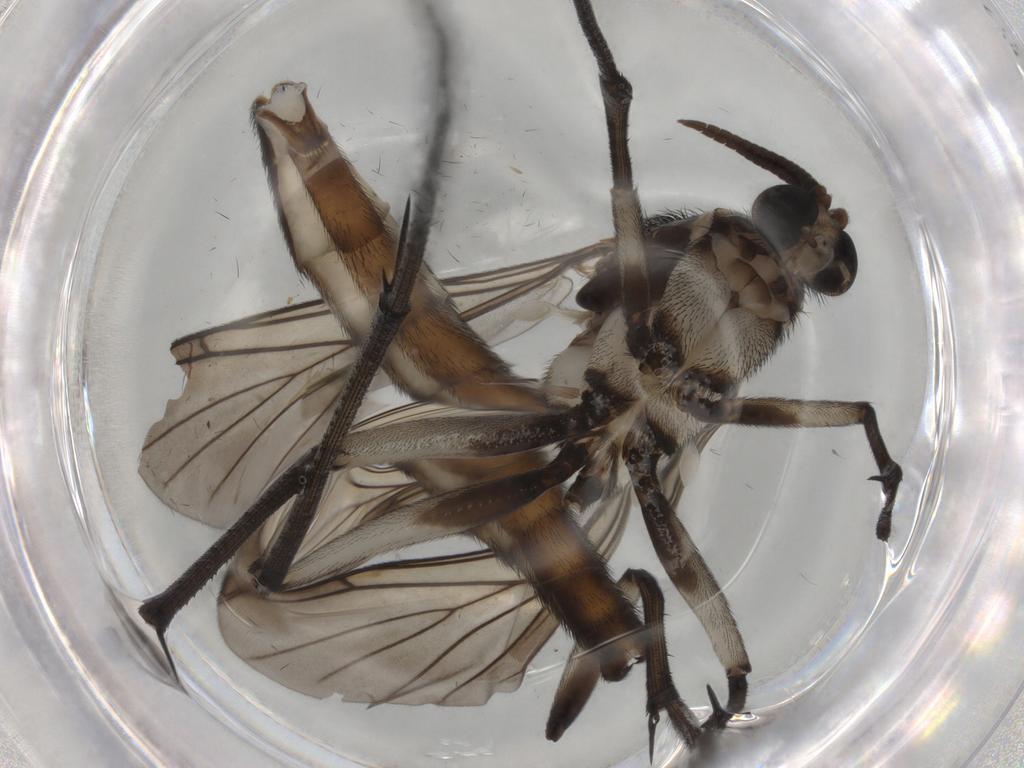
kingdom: Animalia
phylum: Arthropoda
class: Insecta
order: Diptera
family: Keroplatidae
